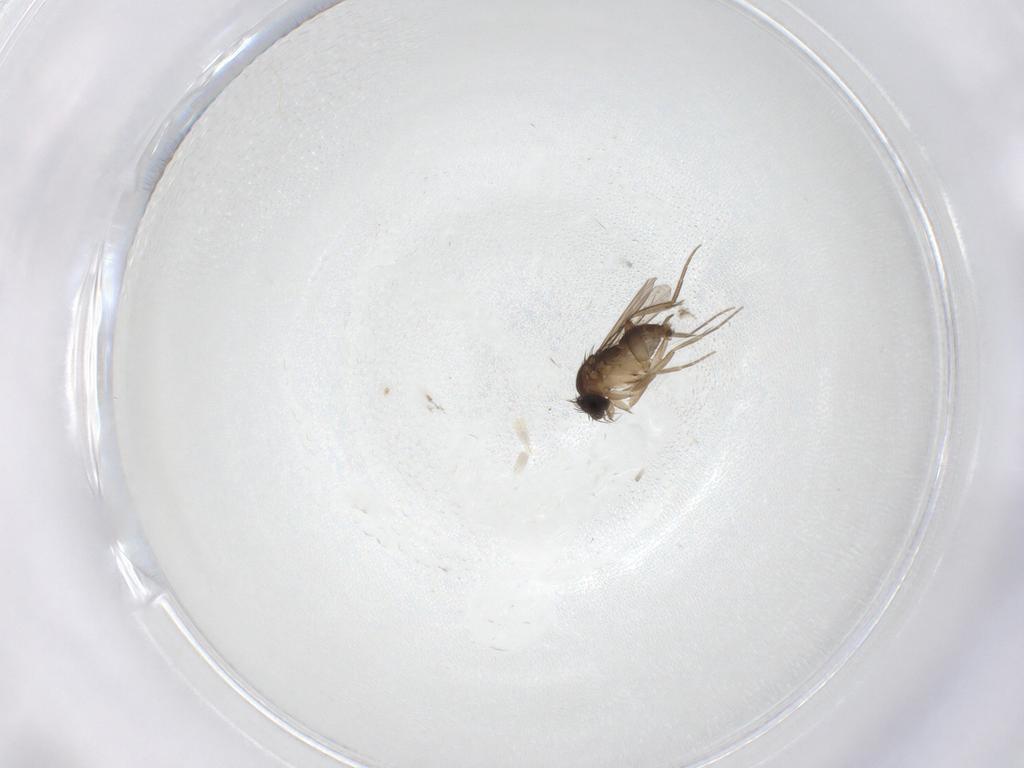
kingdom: Animalia
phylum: Arthropoda
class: Insecta
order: Diptera
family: Phoridae
